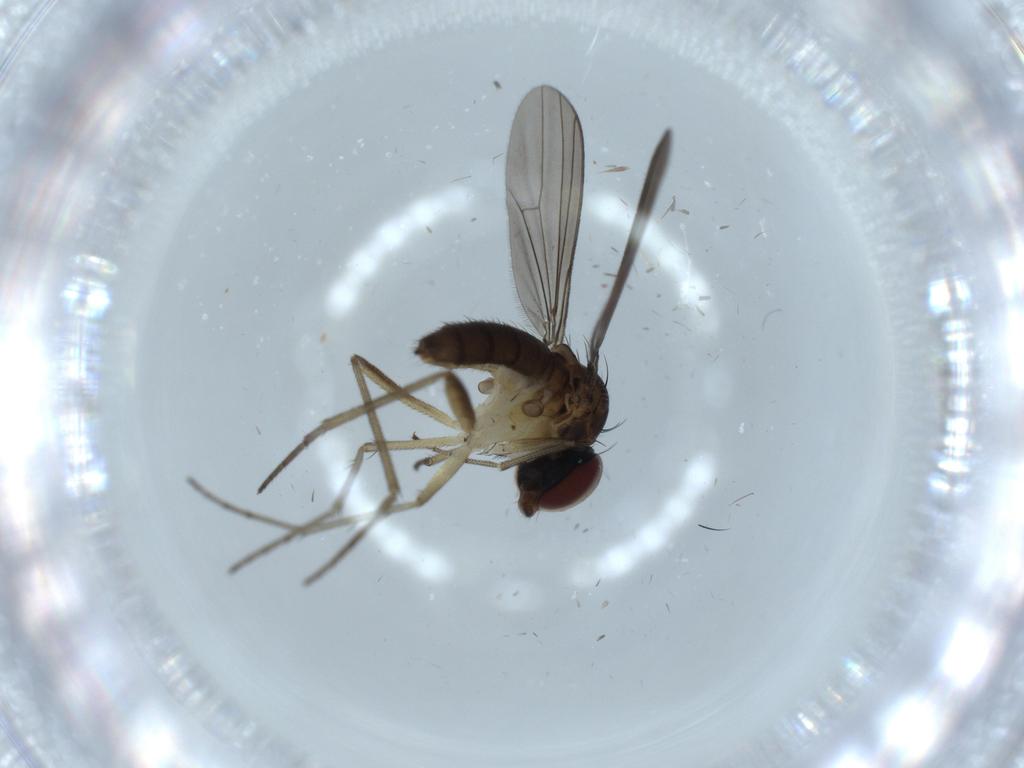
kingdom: Animalia
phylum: Arthropoda
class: Insecta
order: Diptera
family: Dolichopodidae
